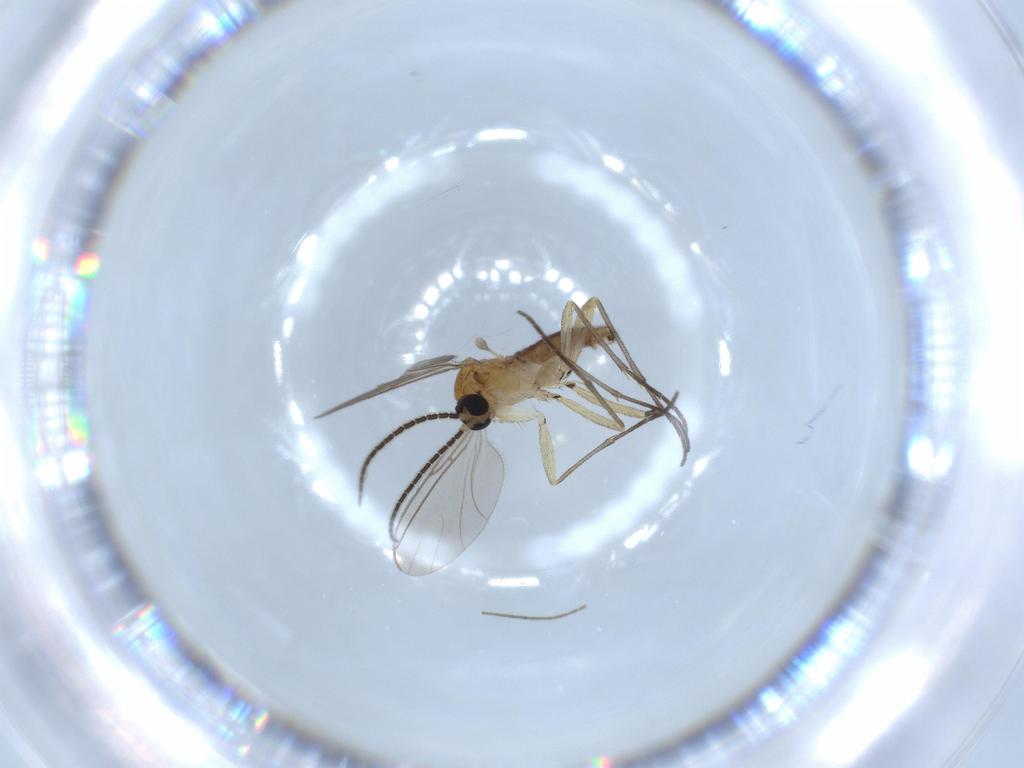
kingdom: Animalia
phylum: Arthropoda
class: Insecta
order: Diptera
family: Sciaridae
